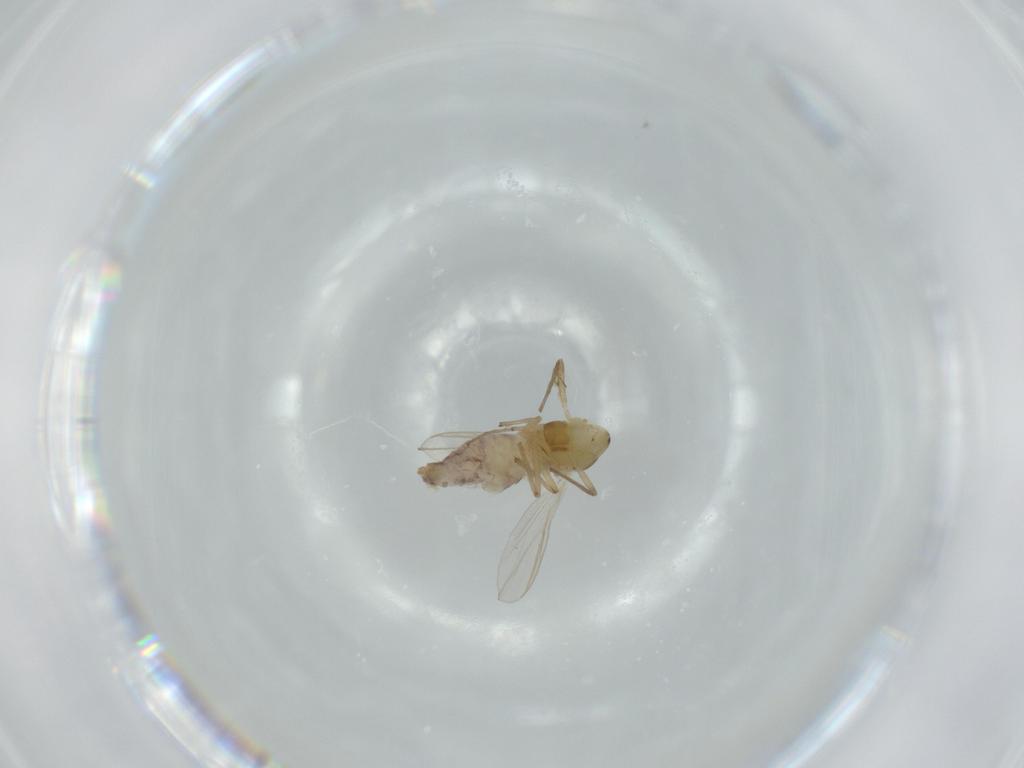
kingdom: Animalia
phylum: Arthropoda
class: Insecta
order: Diptera
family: Chironomidae
